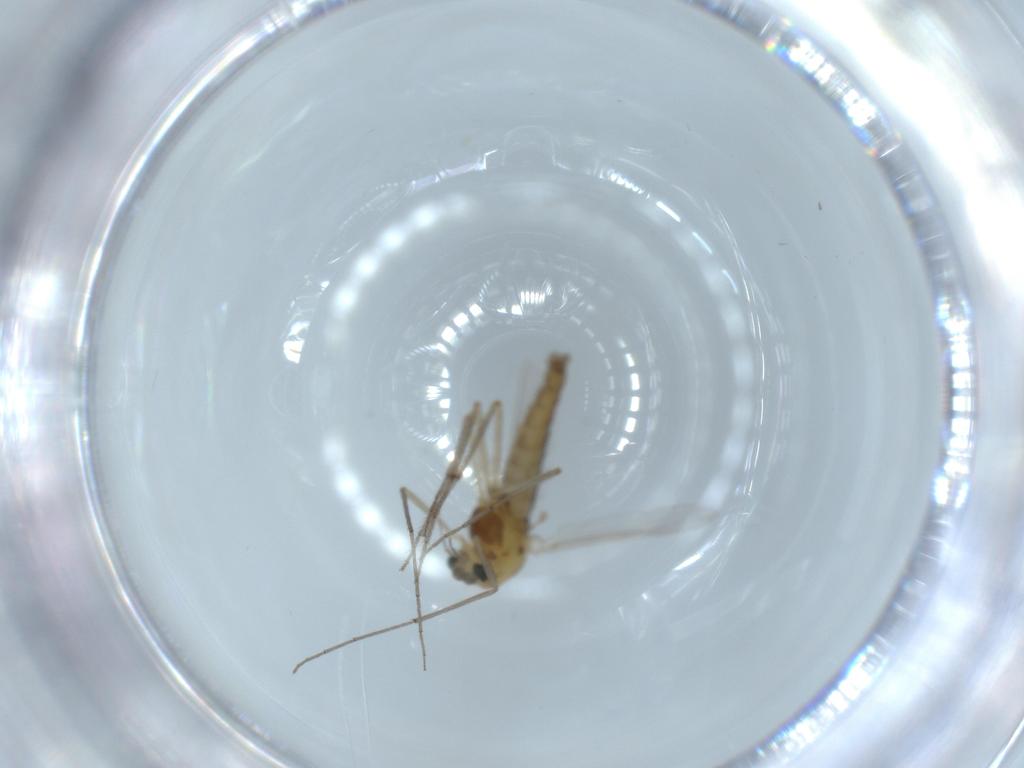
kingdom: Animalia
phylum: Arthropoda
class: Insecta
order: Diptera
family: Chironomidae
